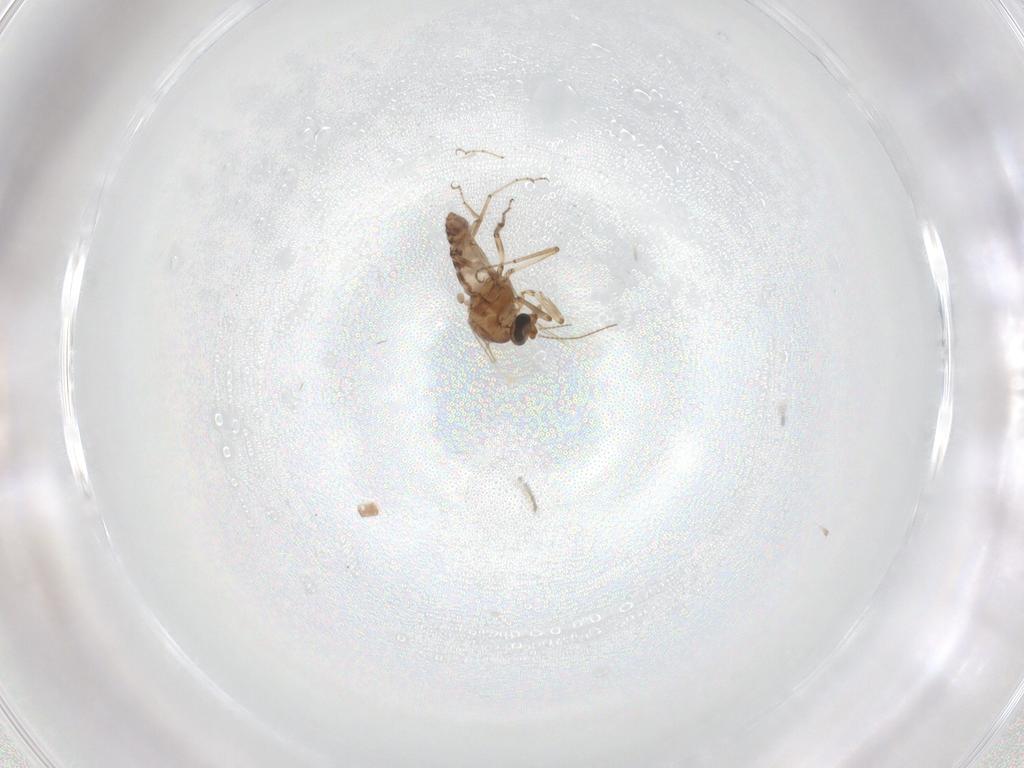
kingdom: Animalia
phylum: Arthropoda
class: Insecta
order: Diptera
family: Ceratopogonidae
